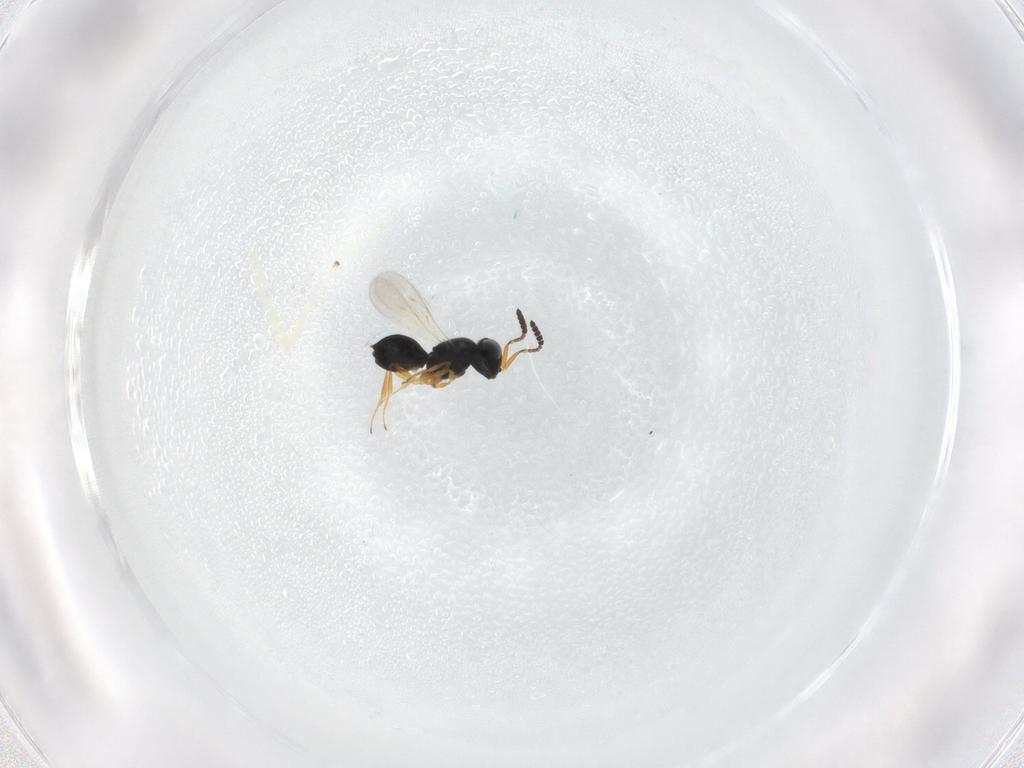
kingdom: Animalia
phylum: Arthropoda
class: Insecta
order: Hymenoptera
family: Scelionidae
